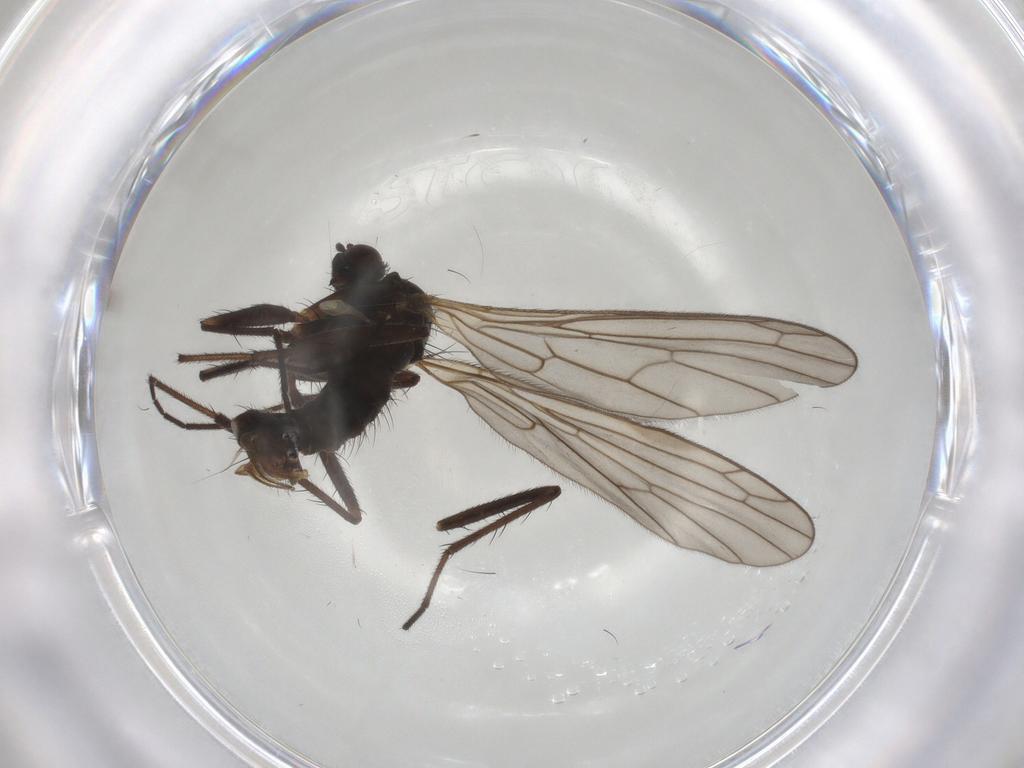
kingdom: Animalia
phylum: Arthropoda
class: Insecta
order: Diptera
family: Empididae
